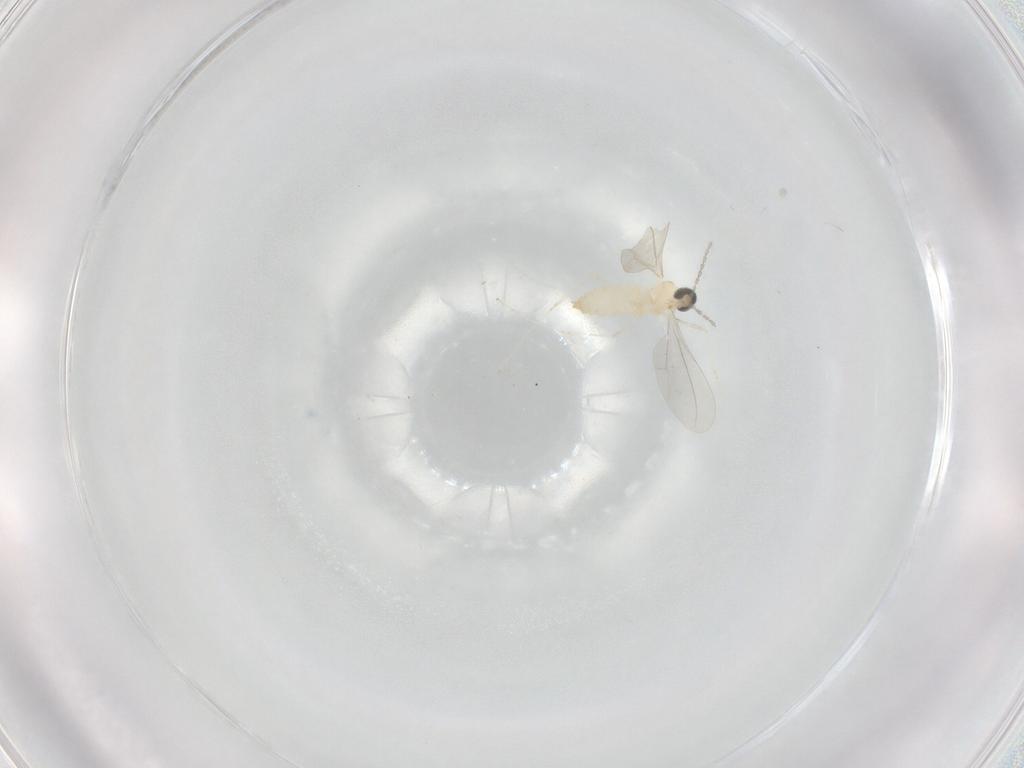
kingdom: Animalia
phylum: Arthropoda
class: Insecta
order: Diptera
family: Cecidomyiidae
